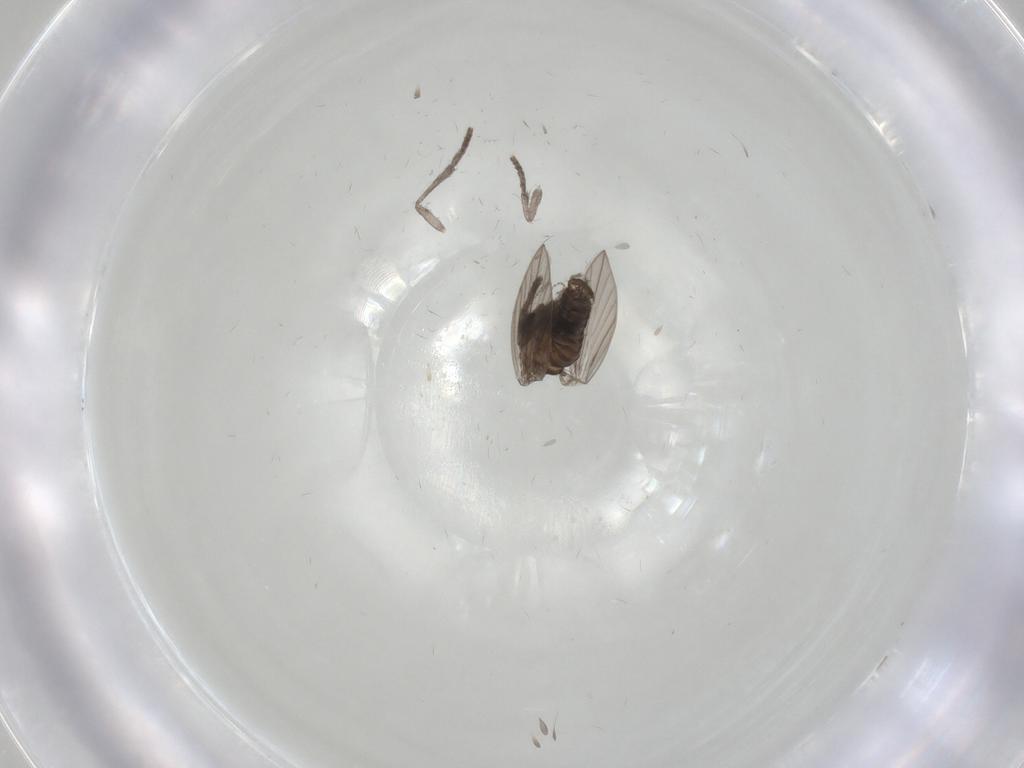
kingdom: Animalia
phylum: Arthropoda
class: Insecta
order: Diptera
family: Psychodidae
